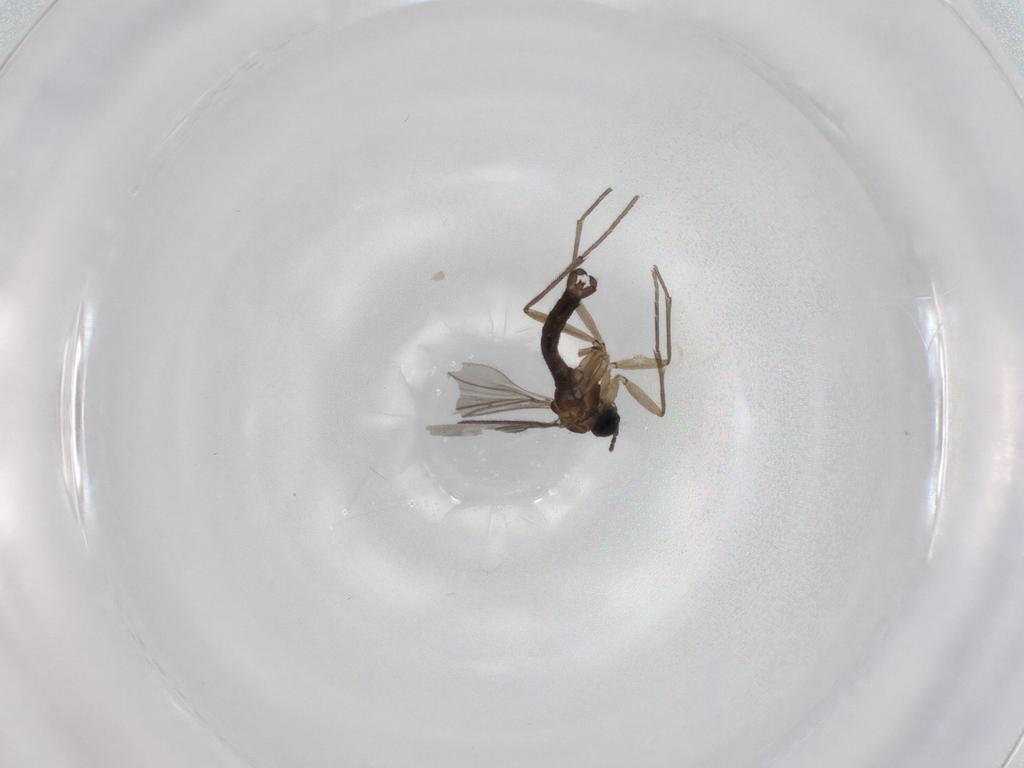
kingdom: Animalia
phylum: Arthropoda
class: Insecta
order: Diptera
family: Sciaridae
